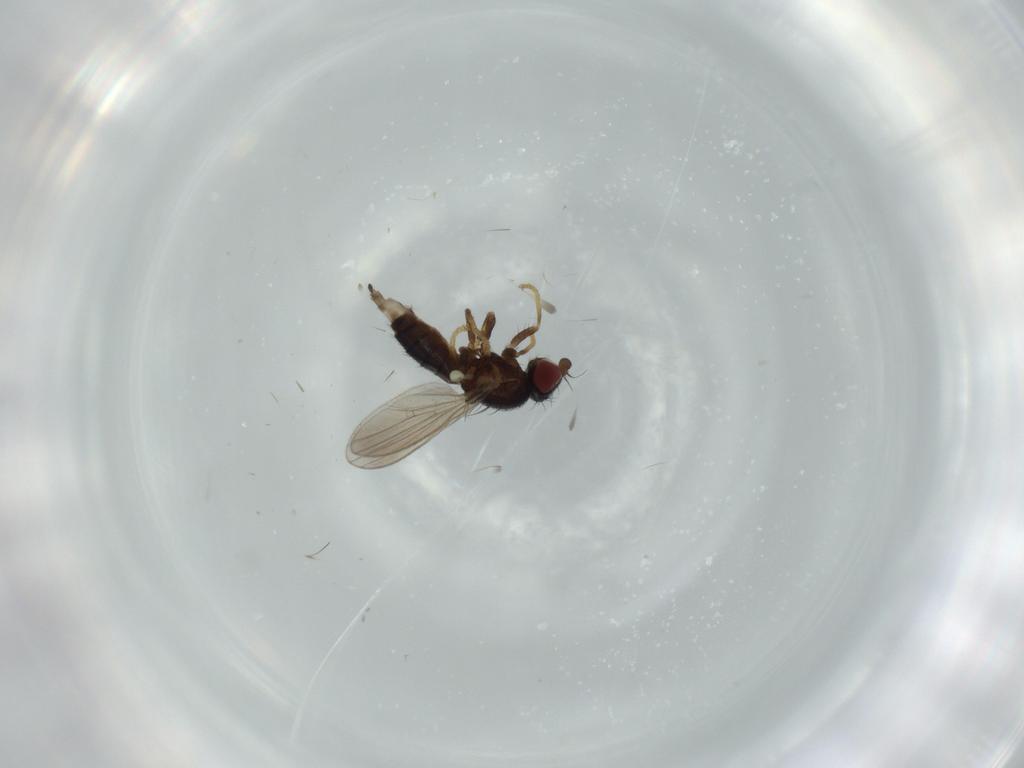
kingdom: Animalia
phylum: Arthropoda
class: Insecta
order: Diptera
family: Chamaemyiidae
